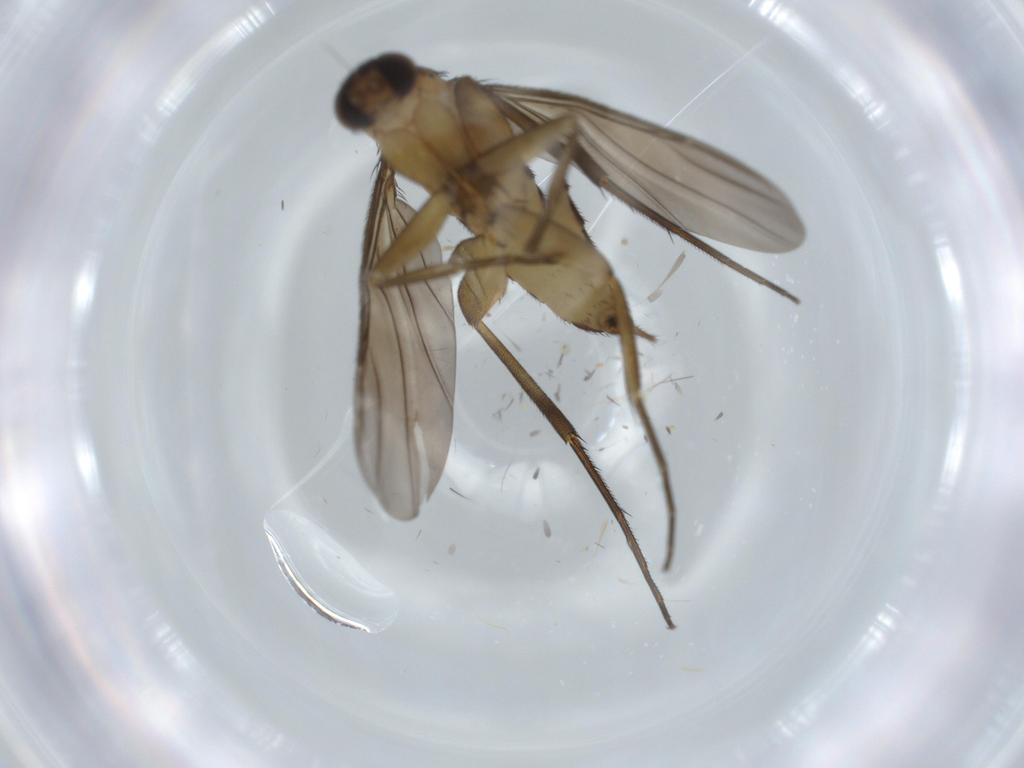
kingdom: Animalia
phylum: Arthropoda
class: Insecta
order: Diptera
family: Phoridae
